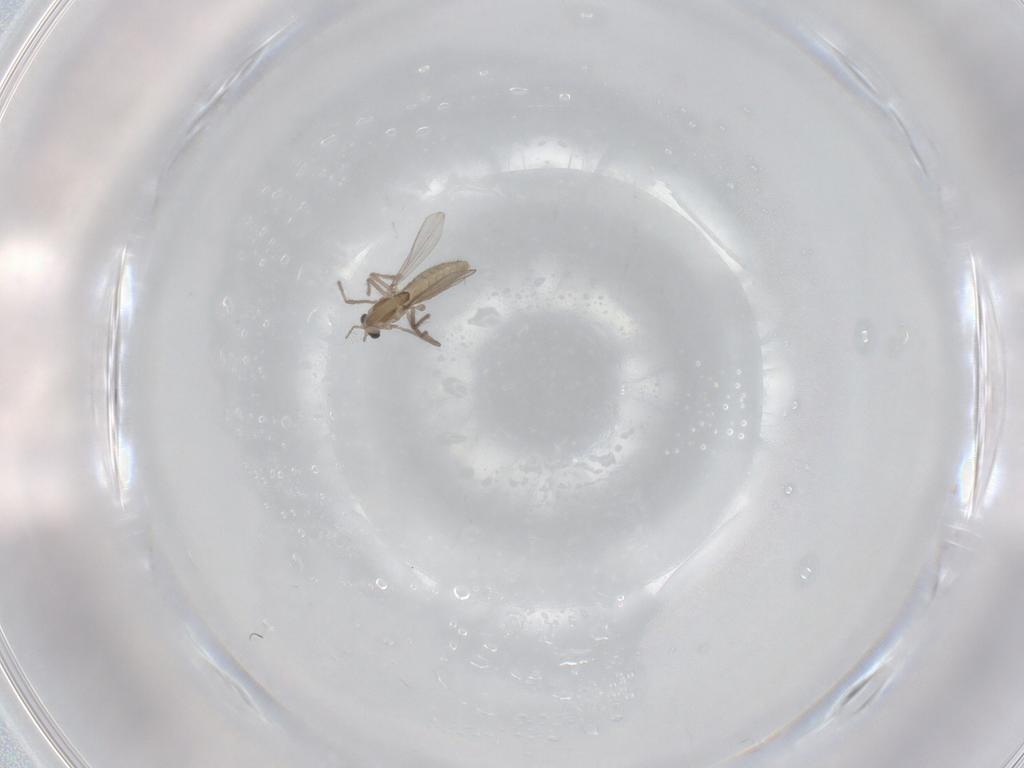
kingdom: Animalia
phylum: Arthropoda
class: Insecta
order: Diptera
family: Chironomidae
